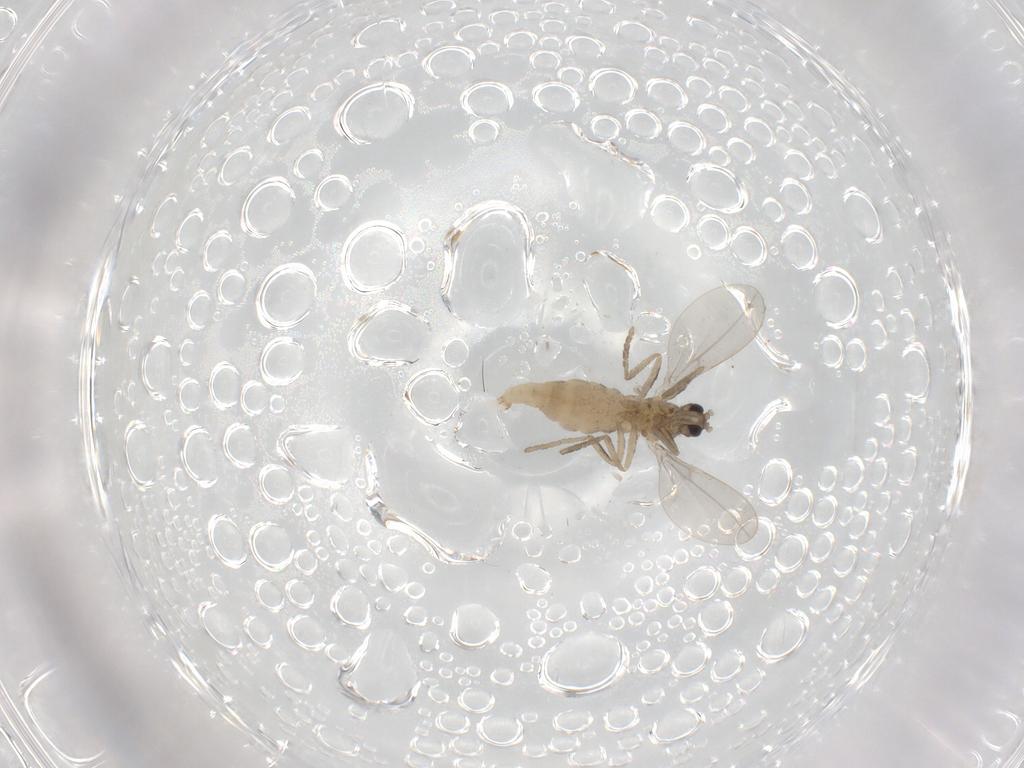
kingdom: Animalia
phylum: Arthropoda
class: Insecta
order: Diptera
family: Cecidomyiidae
